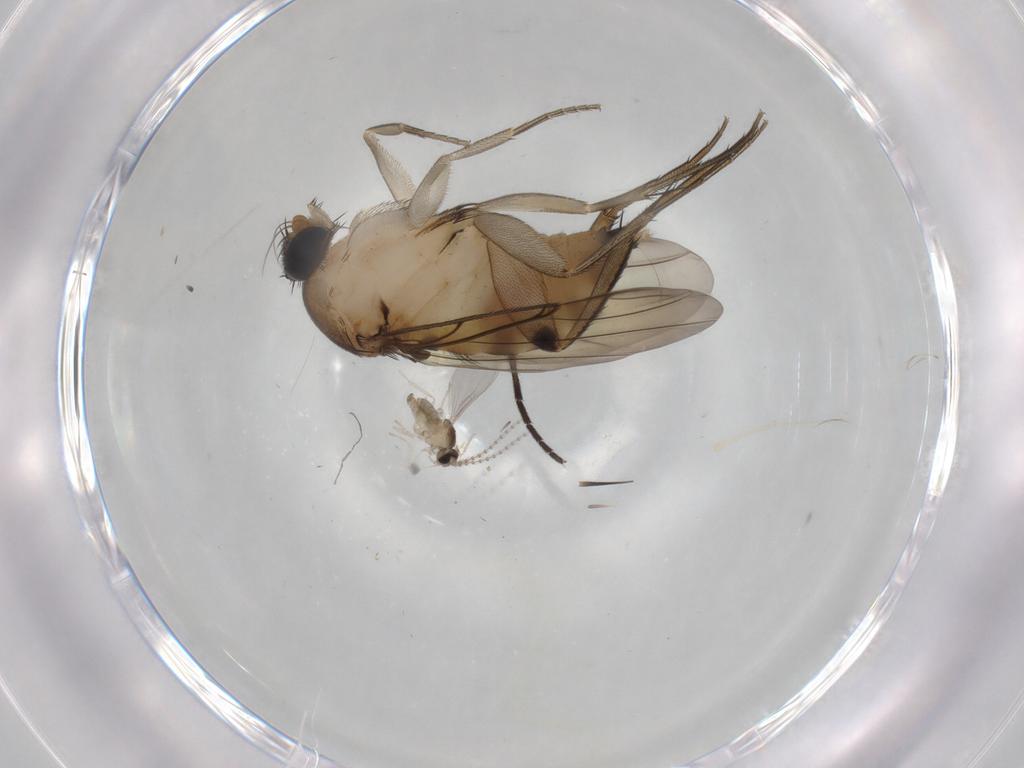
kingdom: Animalia
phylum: Arthropoda
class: Insecta
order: Diptera
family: Phoridae
